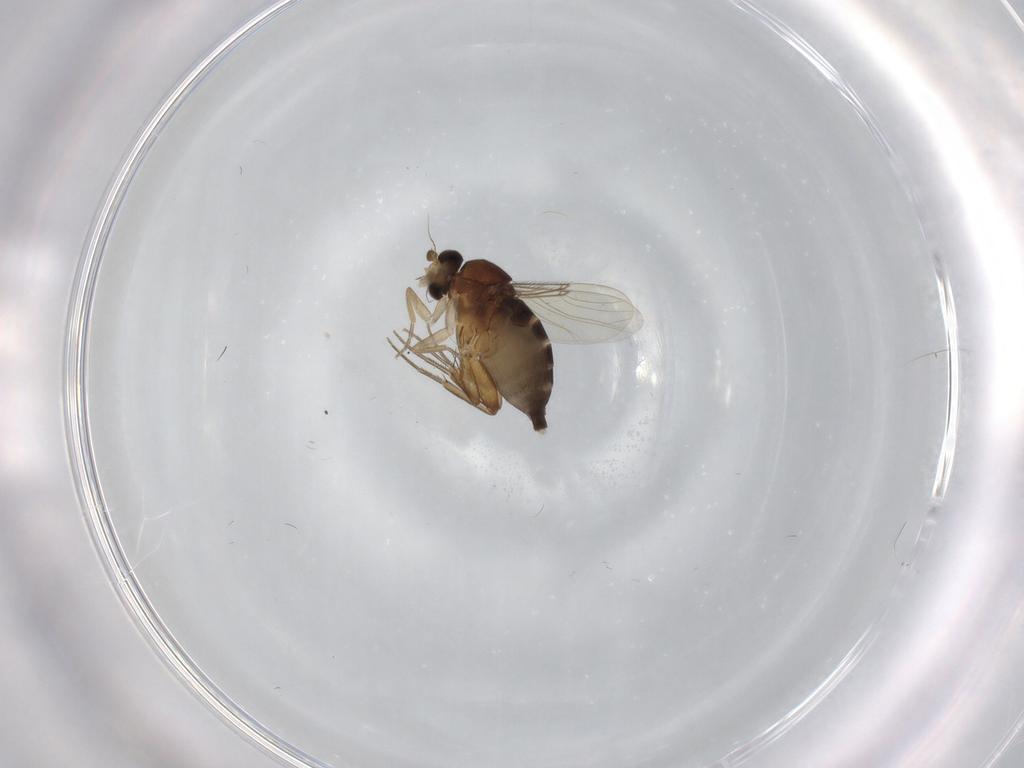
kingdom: Animalia
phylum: Arthropoda
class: Insecta
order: Diptera
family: Phoridae
